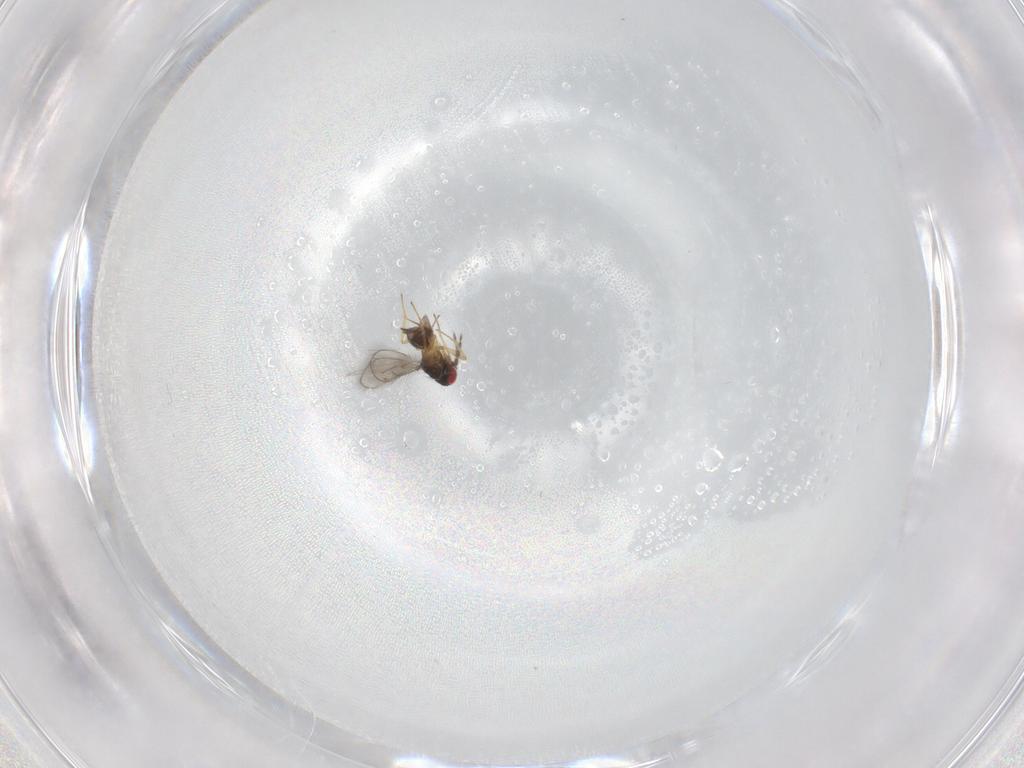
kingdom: Animalia
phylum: Arthropoda
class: Insecta
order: Hymenoptera
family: Eulophidae
